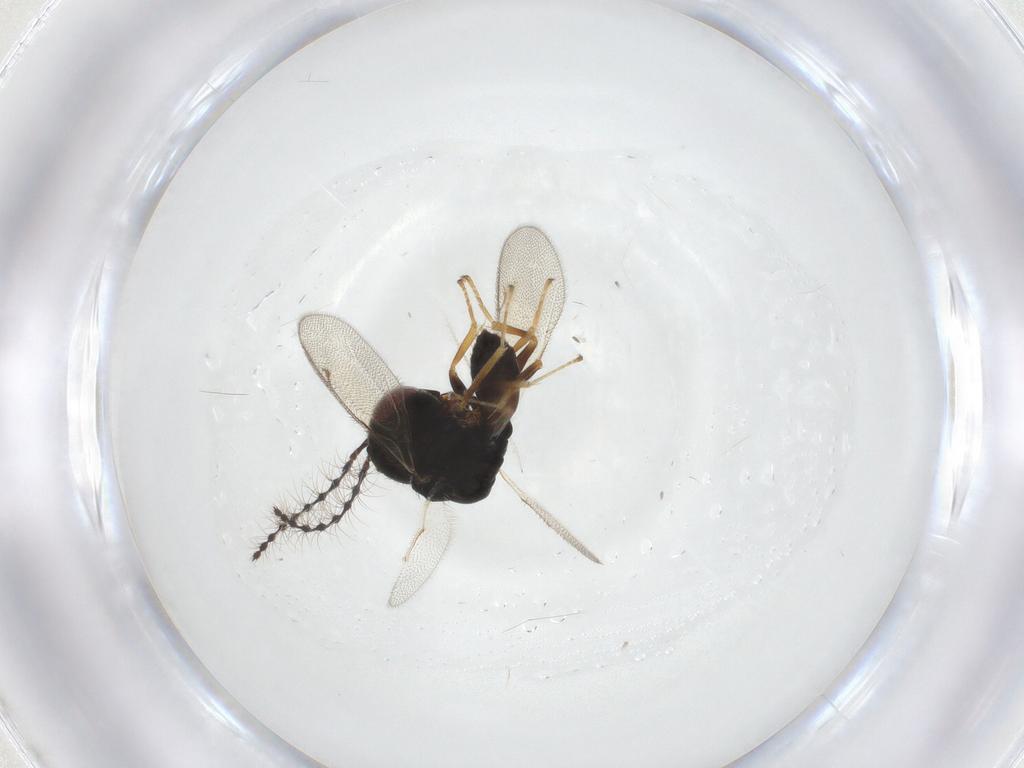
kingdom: Animalia
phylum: Arthropoda
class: Insecta
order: Hymenoptera
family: Pteromalidae
